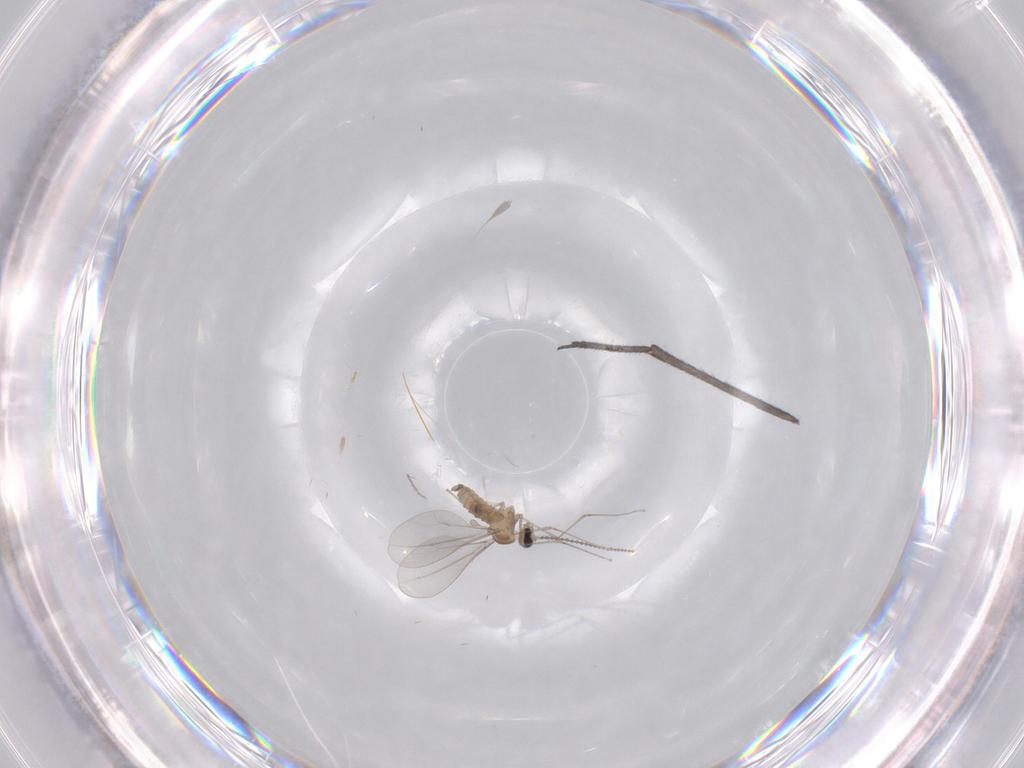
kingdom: Animalia
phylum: Arthropoda
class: Insecta
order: Diptera
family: Cecidomyiidae
